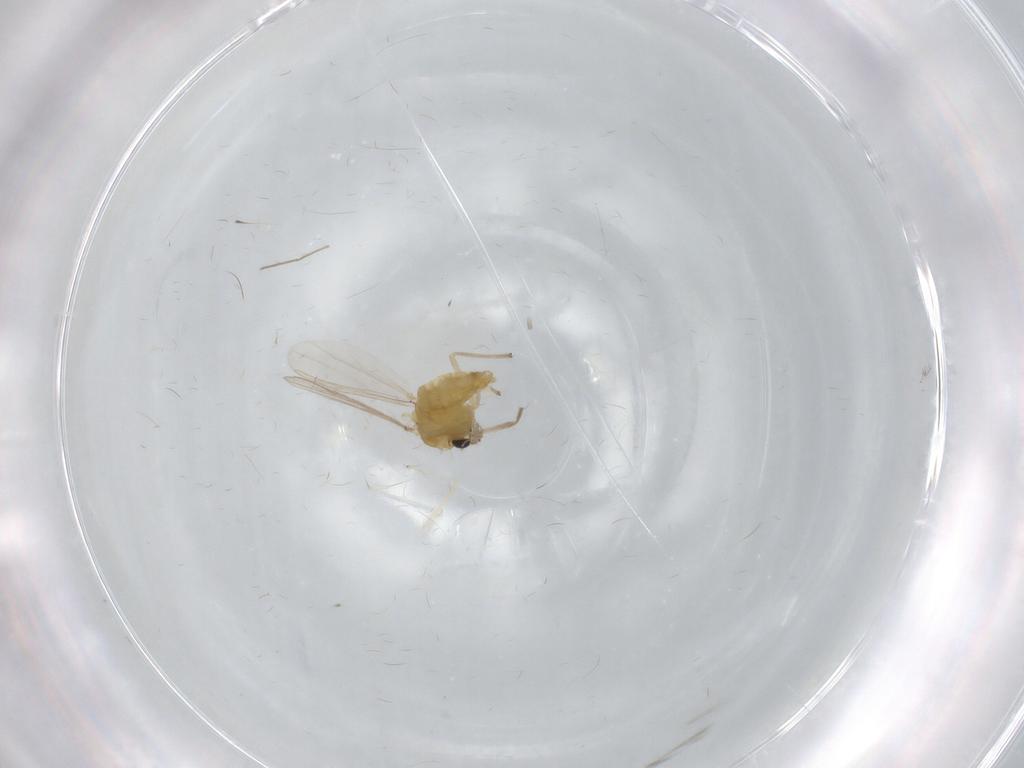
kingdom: Animalia
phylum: Arthropoda
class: Insecta
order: Diptera
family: Chironomidae
